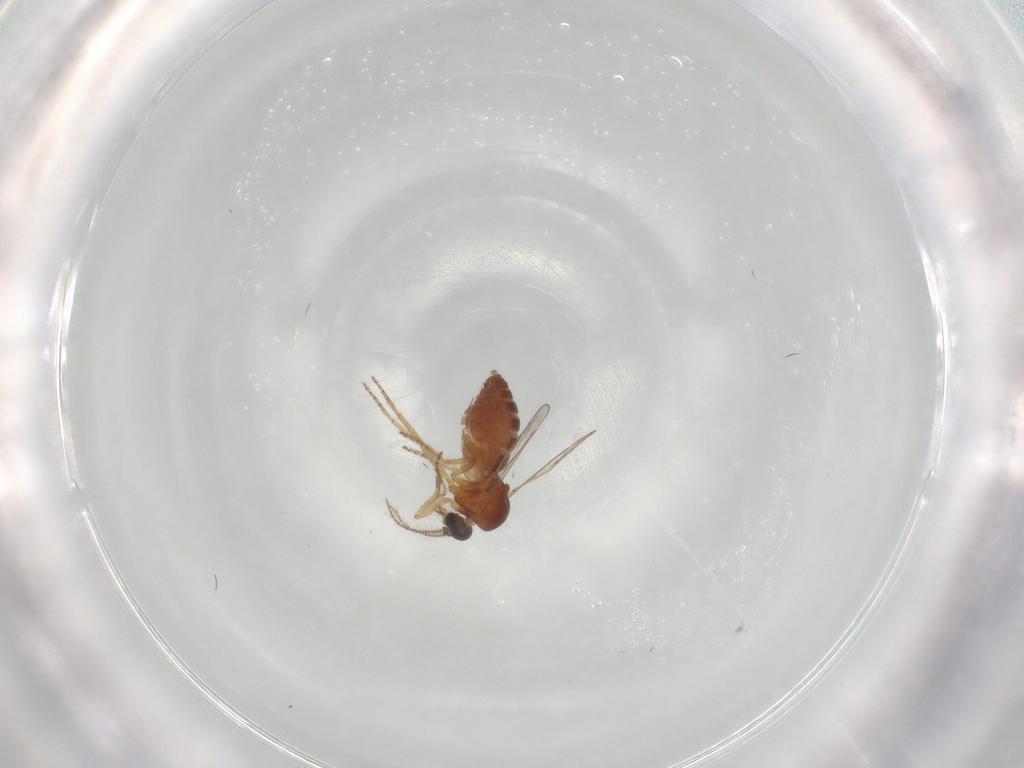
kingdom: Animalia
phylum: Arthropoda
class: Insecta
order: Diptera
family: Ceratopogonidae
